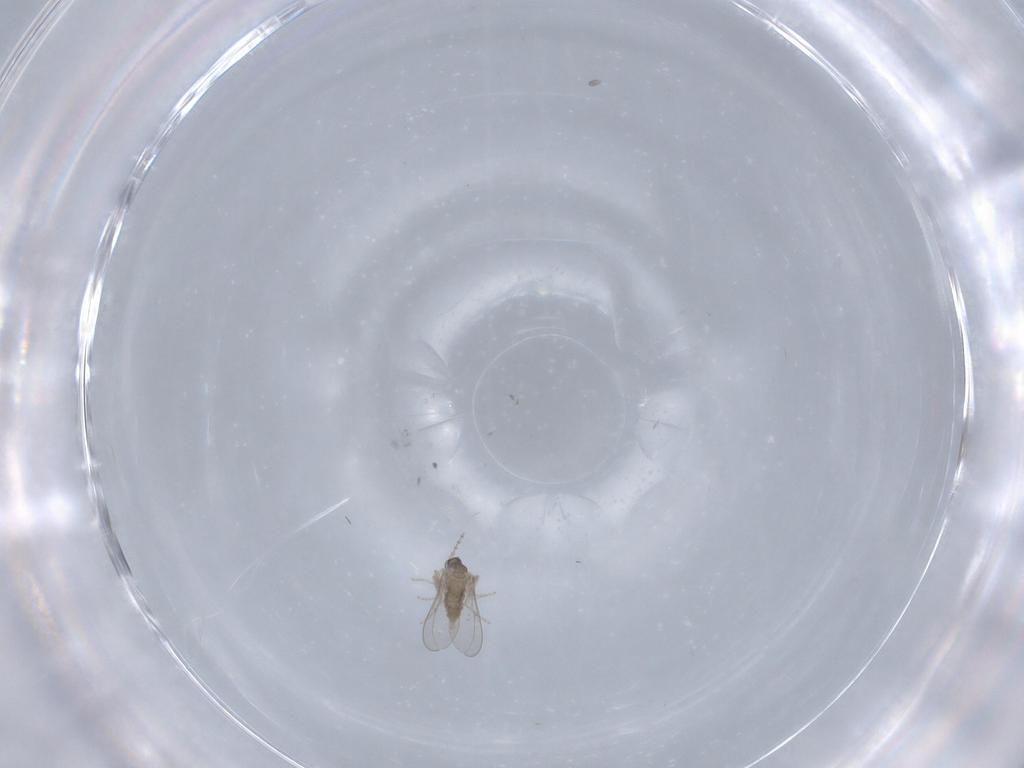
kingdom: Animalia
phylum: Arthropoda
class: Insecta
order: Diptera
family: Sciaridae
